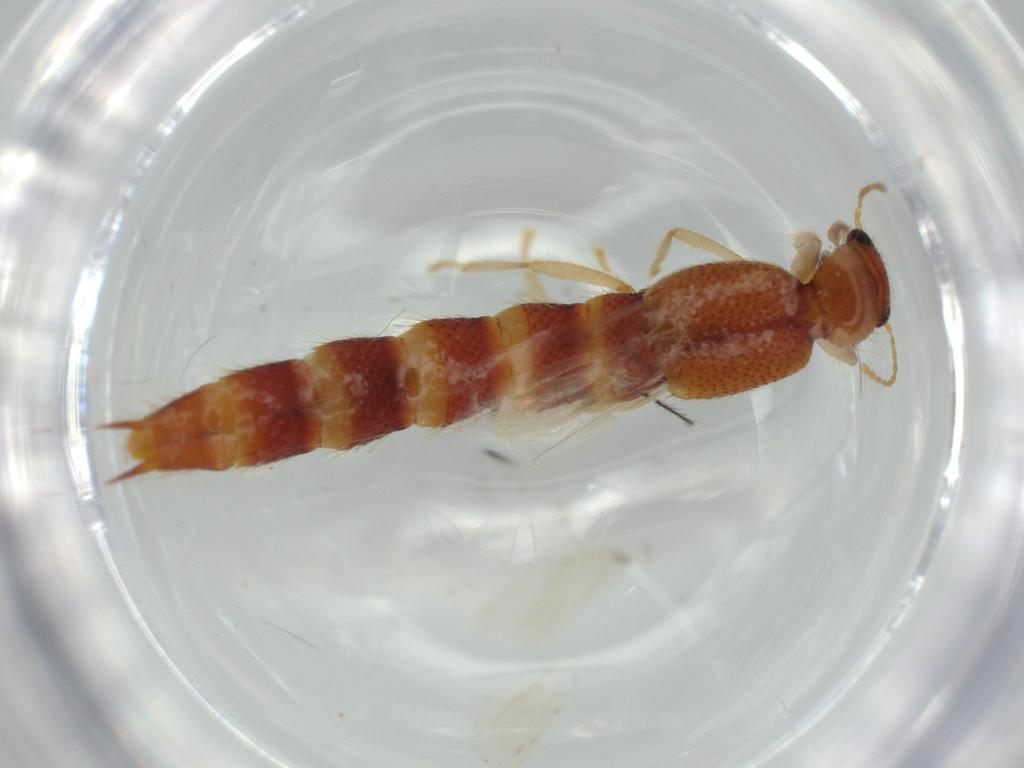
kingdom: Animalia
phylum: Arthropoda
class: Insecta
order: Coleoptera
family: Staphylinidae
